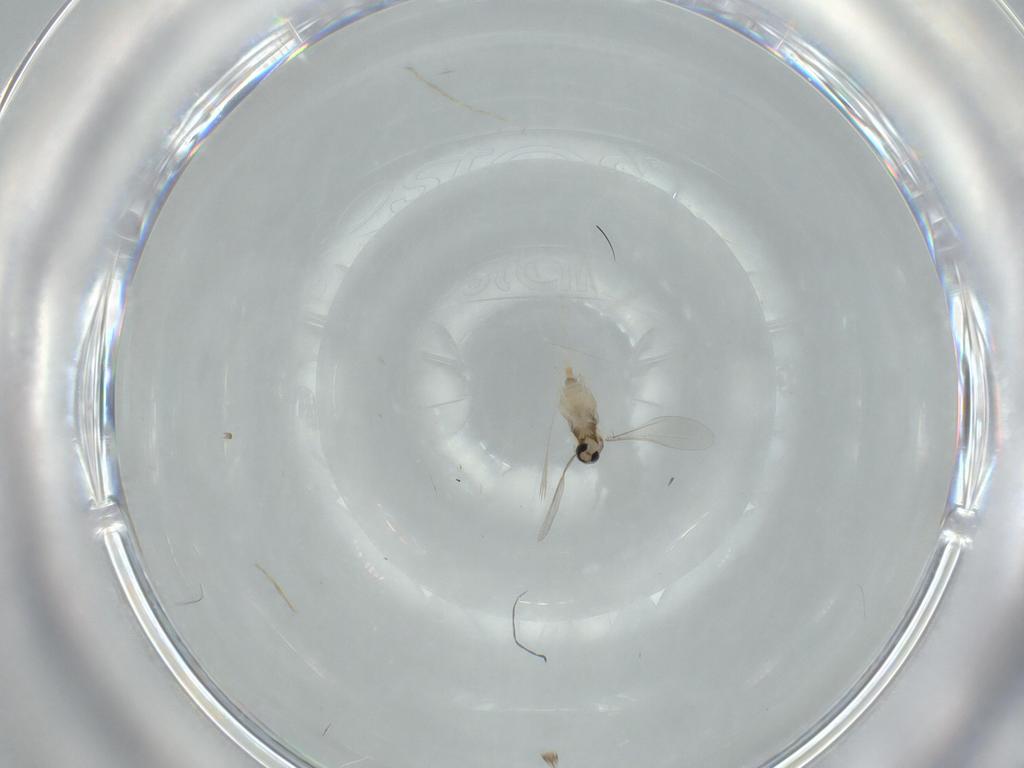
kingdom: Animalia
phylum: Arthropoda
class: Insecta
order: Diptera
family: Cecidomyiidae
